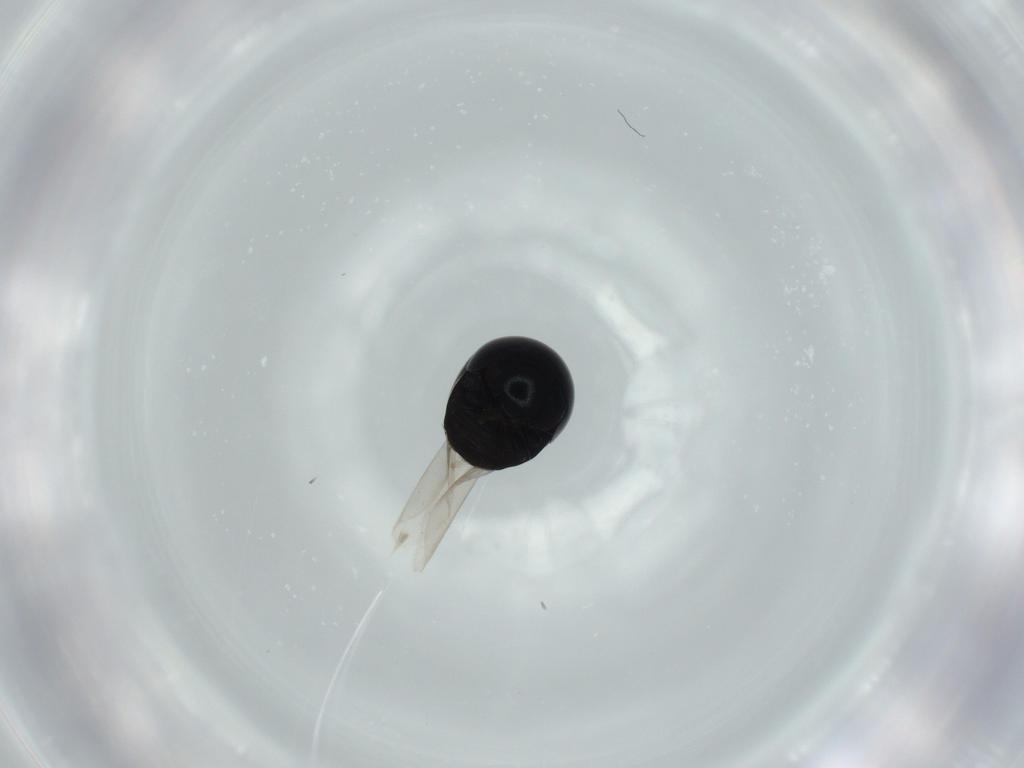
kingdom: Animalia
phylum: Arthropoda
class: Insecta
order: Coleoptera
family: Cybocephalidae
